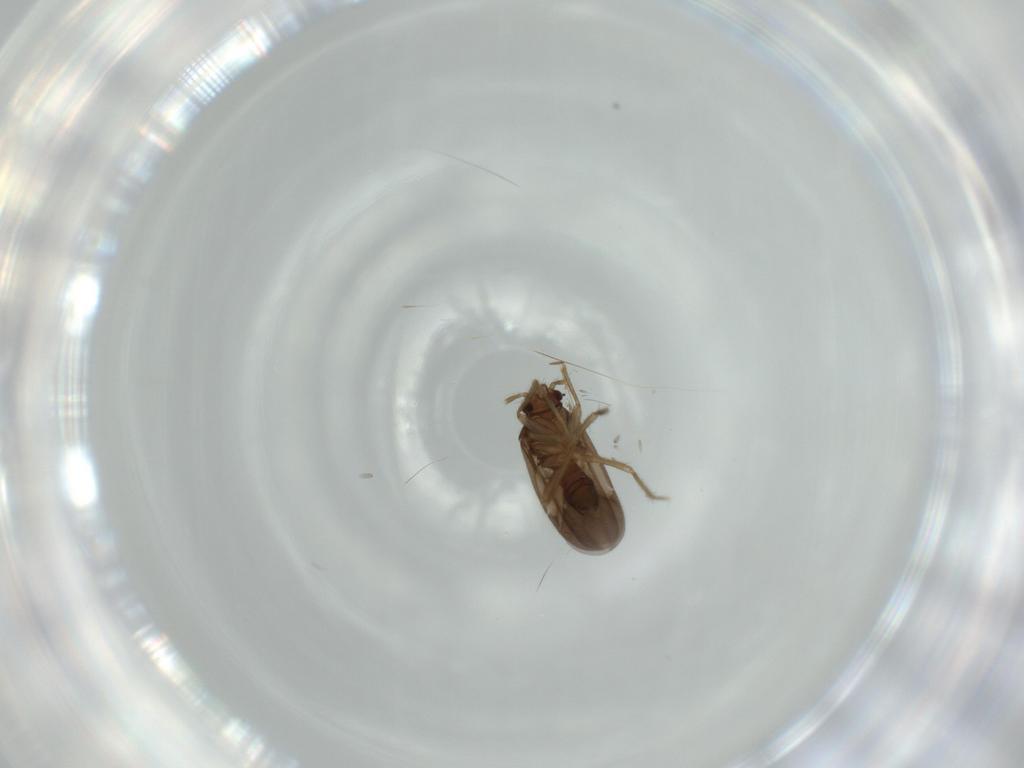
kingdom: Animalia
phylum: Arthropoda
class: Insecta
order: Hemiptera
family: Ceratocombidae
